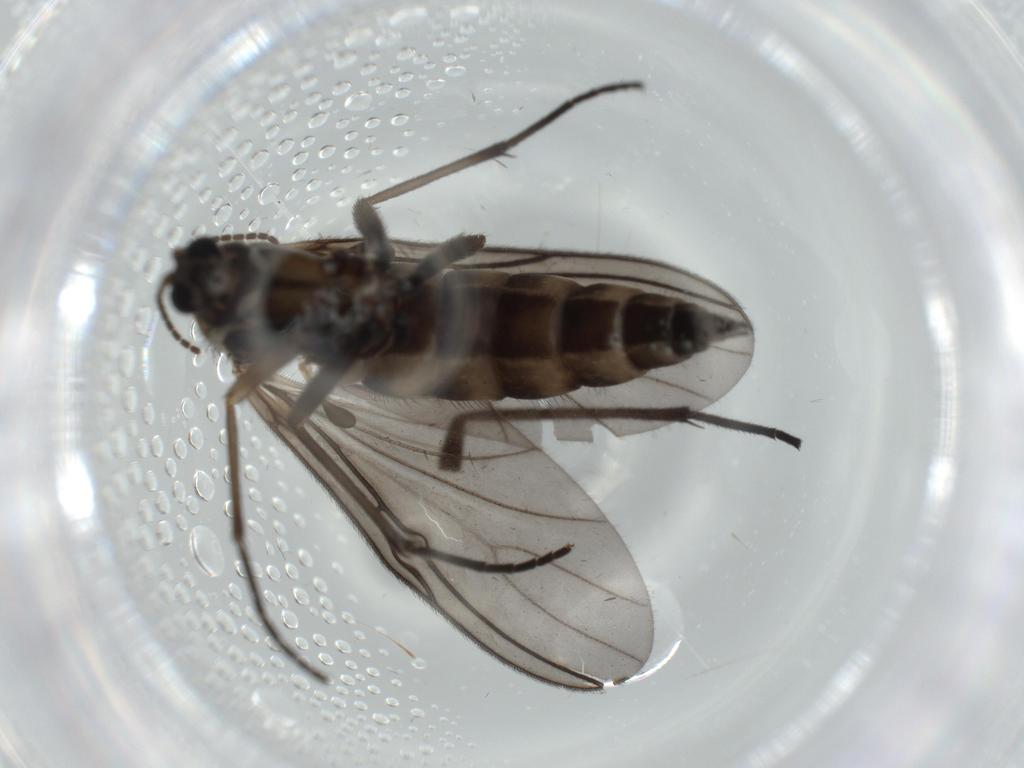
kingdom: Animalia
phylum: Arthropoda
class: Insecta
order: Diptera
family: Sciaridae
